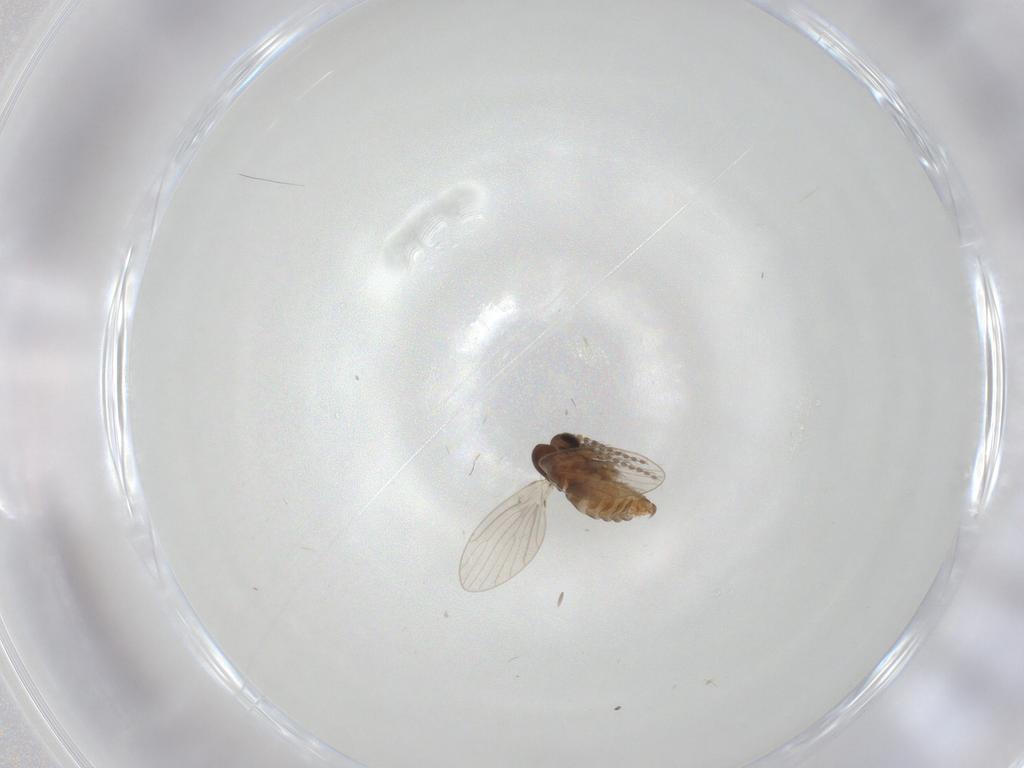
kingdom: Animalia
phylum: Arthropoda
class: Insecta
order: Diptera
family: Psychodidae
